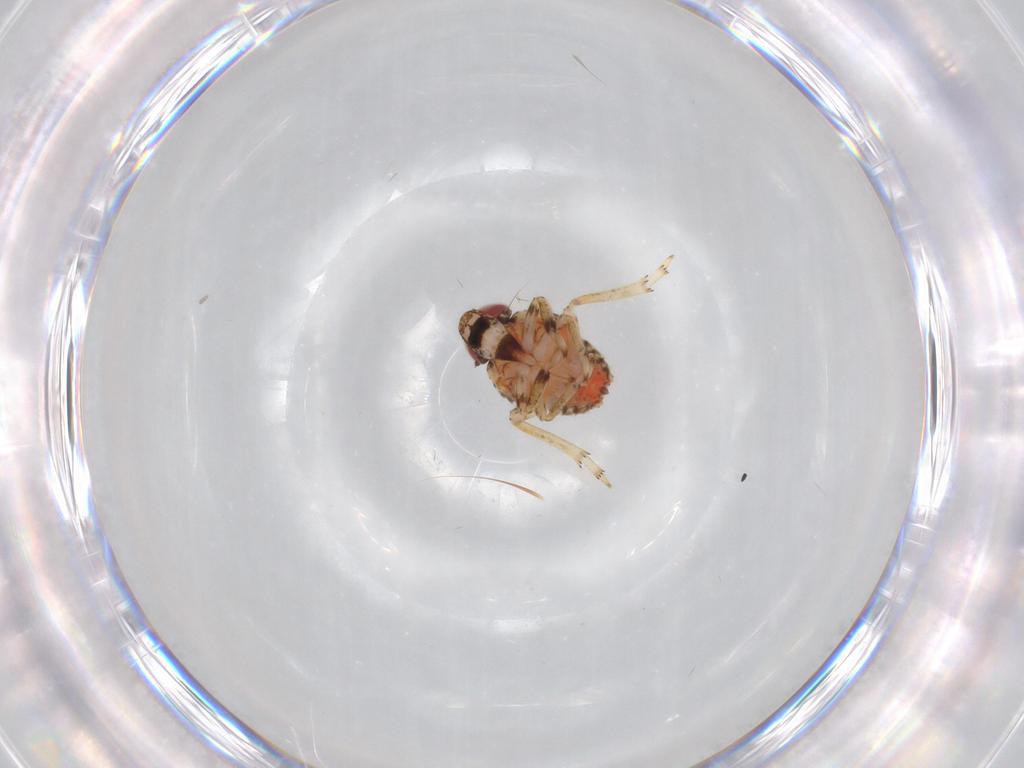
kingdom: Animalia
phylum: Arthropoda
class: Insecta
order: Hemiptera
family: Issidae
